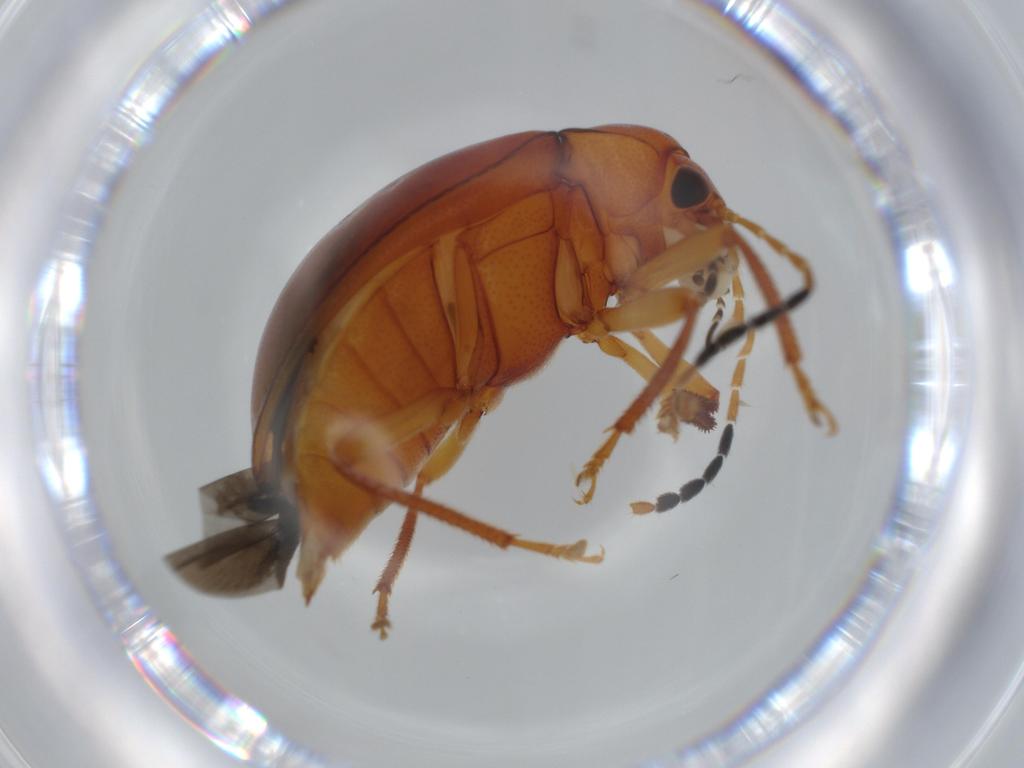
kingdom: Animalia
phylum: Arthropoda
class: Insecta
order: Coleoptera
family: Ptilodactylidae
